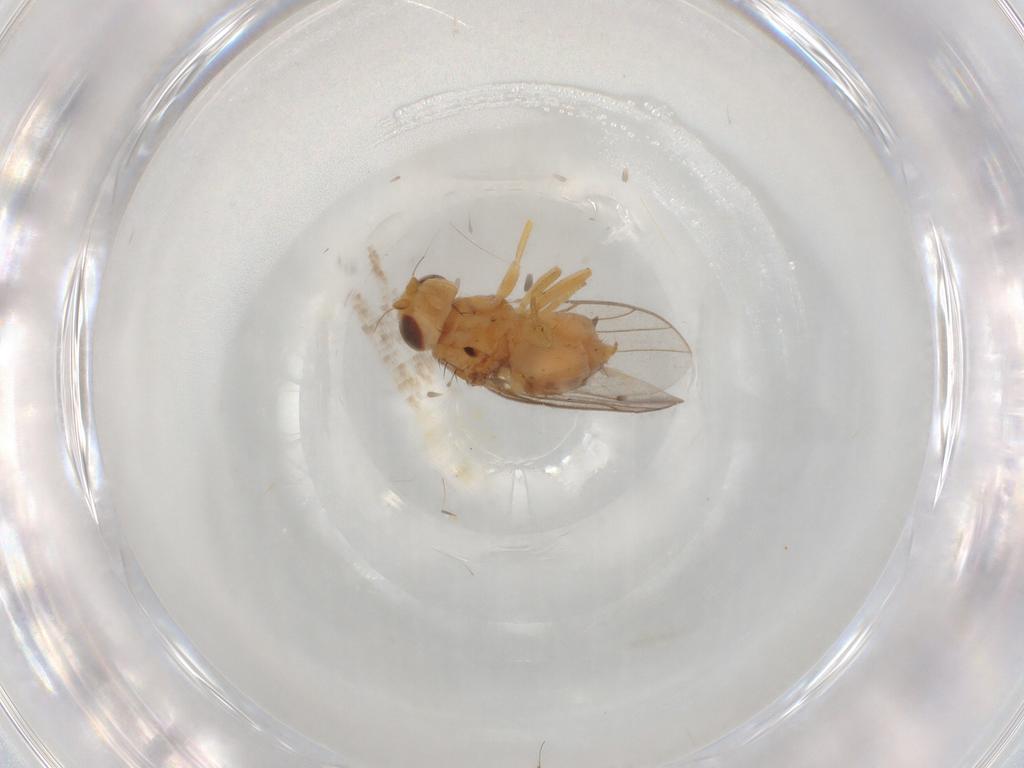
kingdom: Animalia
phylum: Arthropoda
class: Insecta
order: Diptera
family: Chloropidae
